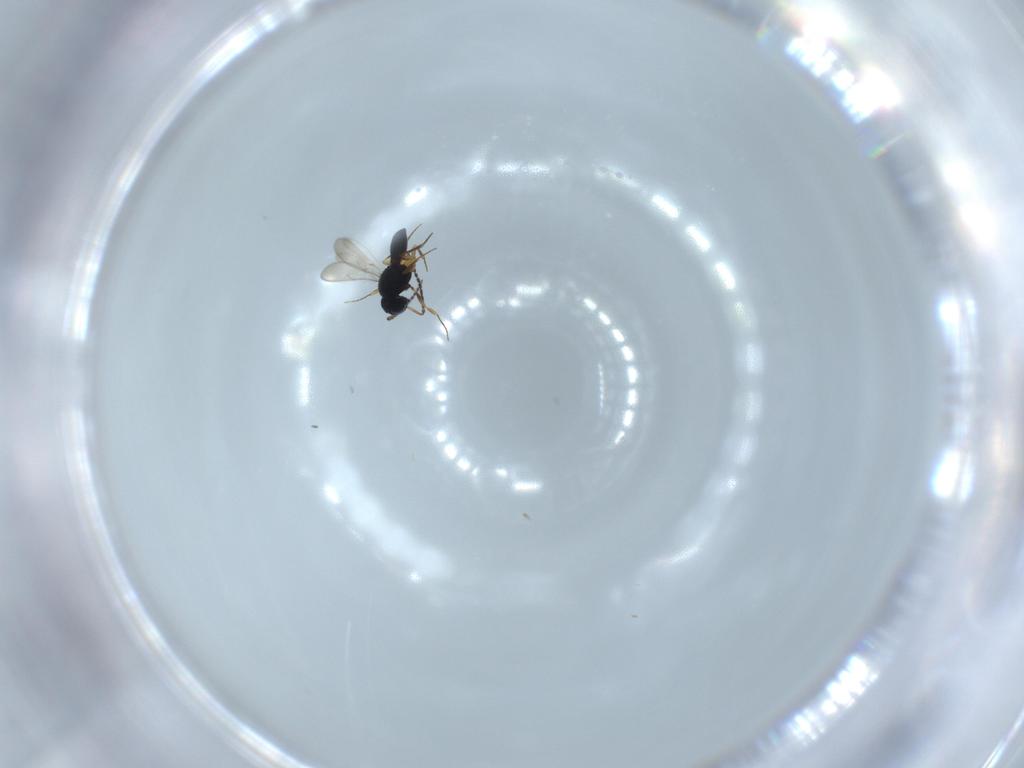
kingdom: Animalia
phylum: Arthropoda
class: Insecta
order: Hymenoptera
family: Scelionidae
